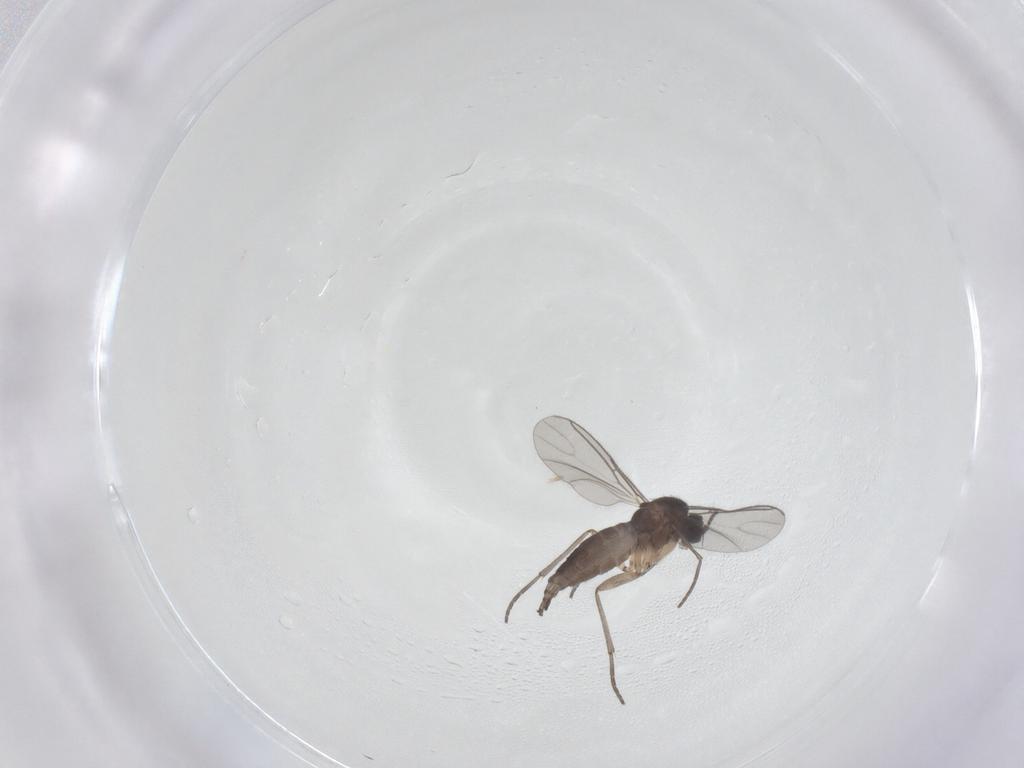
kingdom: Animalia
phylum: Arthropoda
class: Insecta
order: Diptera
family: Sciaridae
